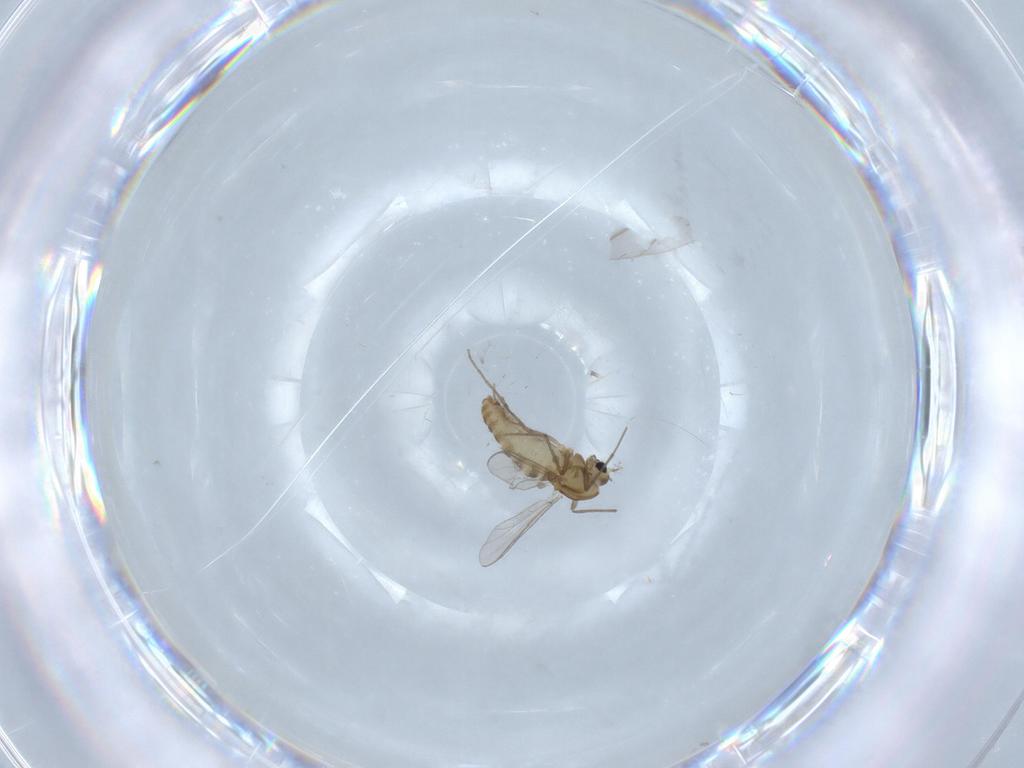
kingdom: Animalia
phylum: Arthropoda
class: Insecta
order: Diptera
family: Chironomidae
